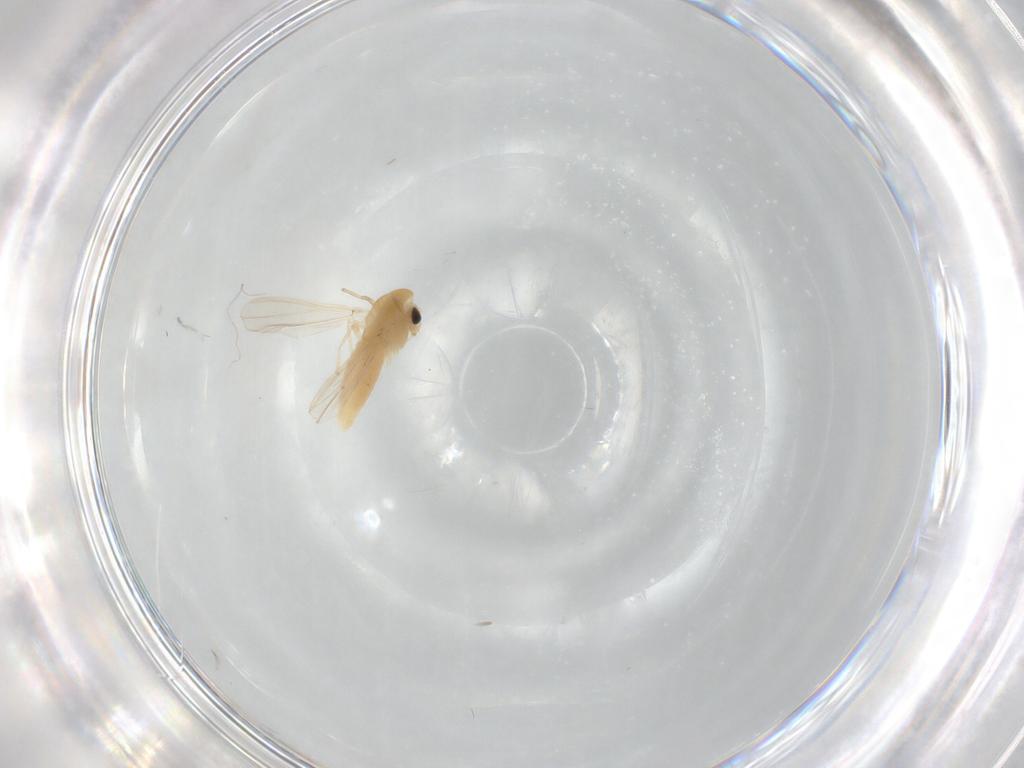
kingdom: Animalia
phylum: Arthropoda
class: Insecta
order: Diptera
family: Chironomidae
